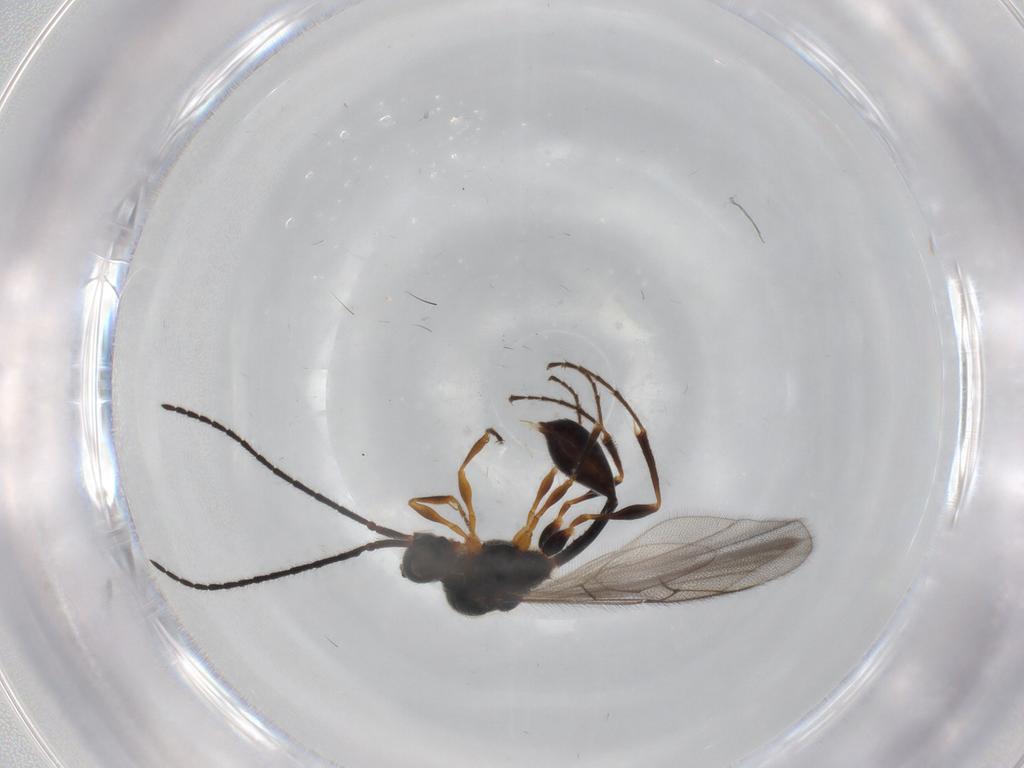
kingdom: Animalia
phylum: Arthropoda
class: Insecta
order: Hymenoptera
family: Diapriidae
